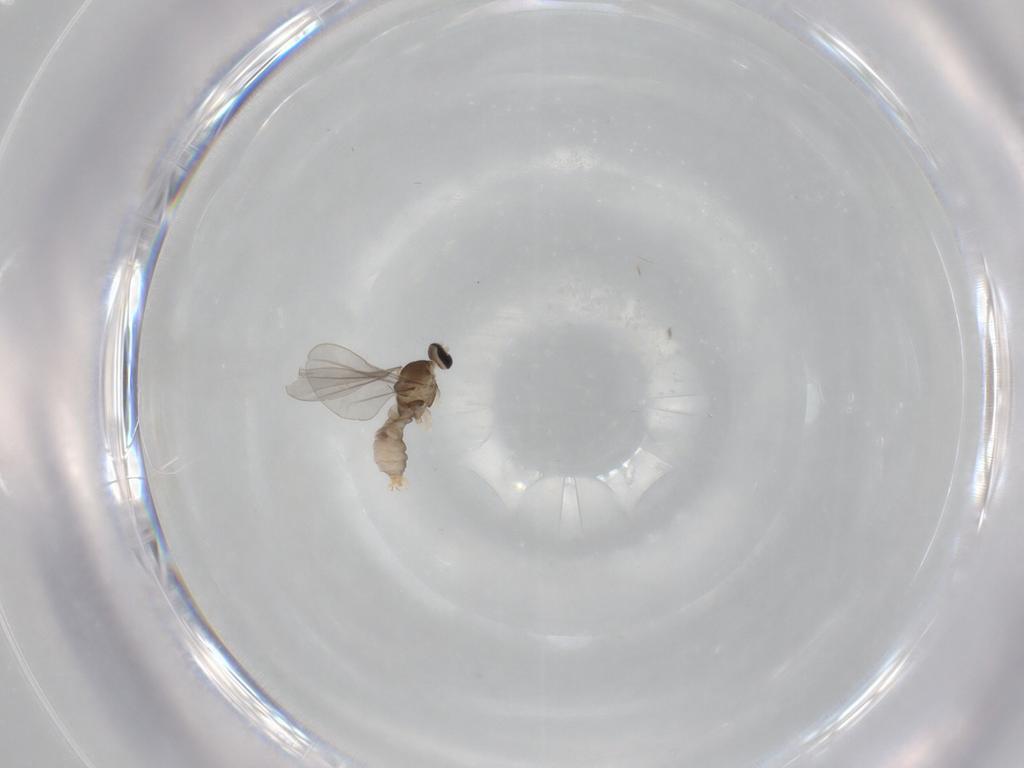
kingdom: Animalia
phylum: Arthropoda
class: Insecta
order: Diptera
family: Cecidomyiidae
